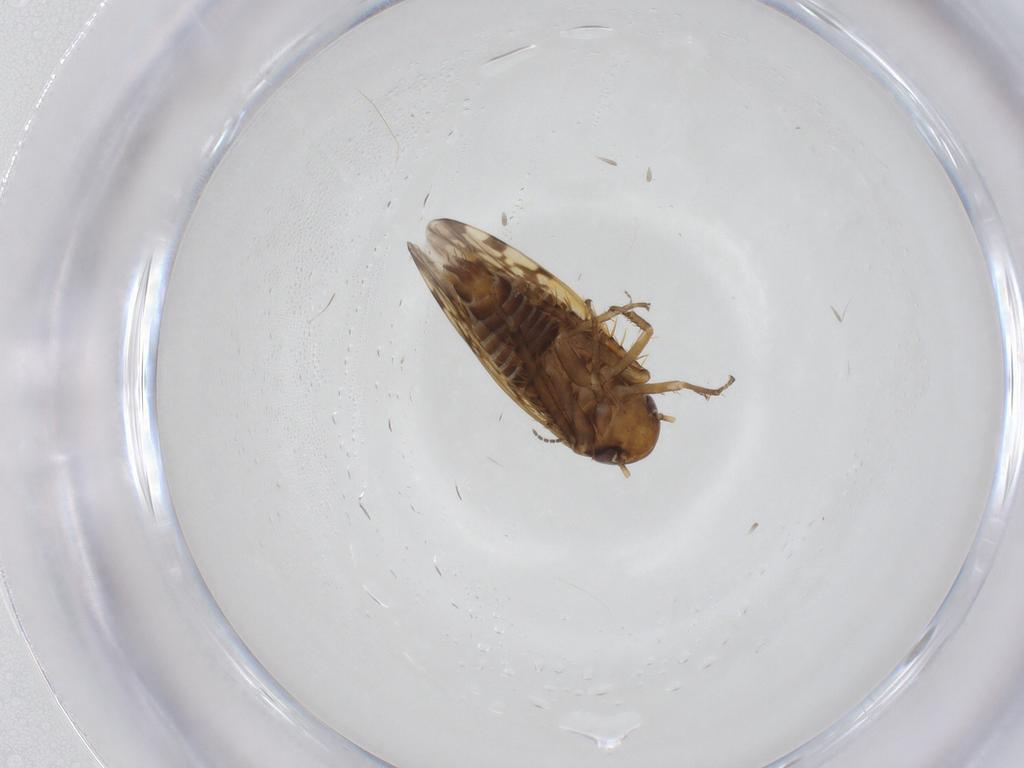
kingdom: Animalia
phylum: Arthropoda
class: Insecta
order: Hemiptera
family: Cicadellidae
